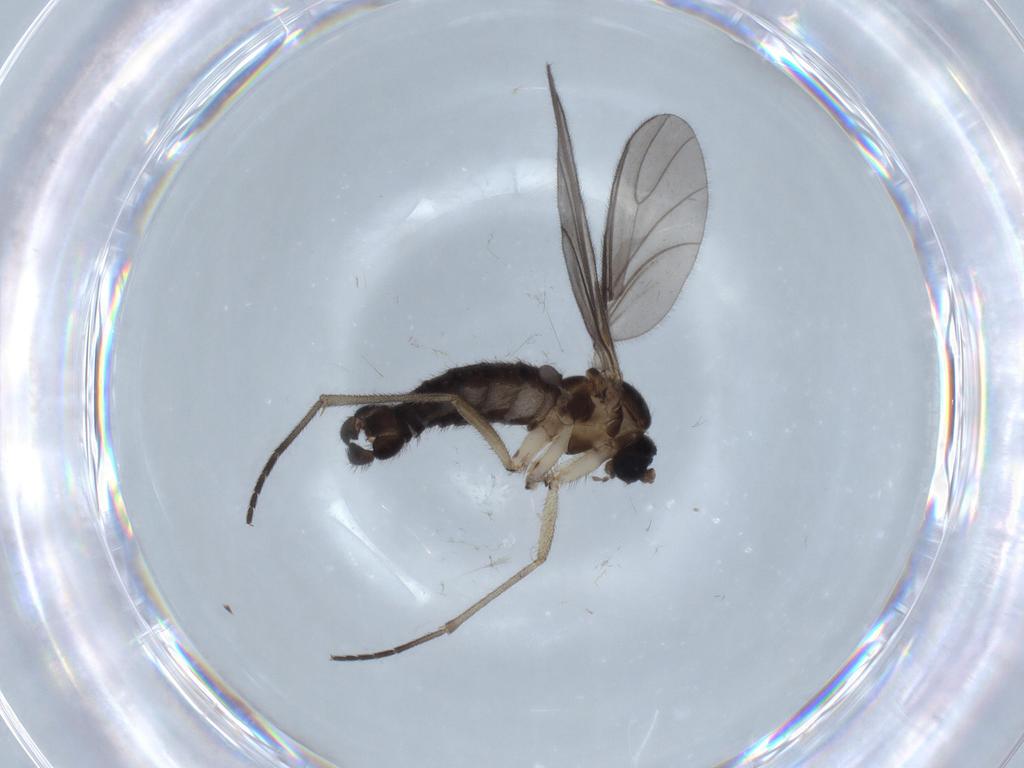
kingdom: Animalia
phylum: Arthropoda
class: Insecta
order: Diptera
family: Sciaridae
